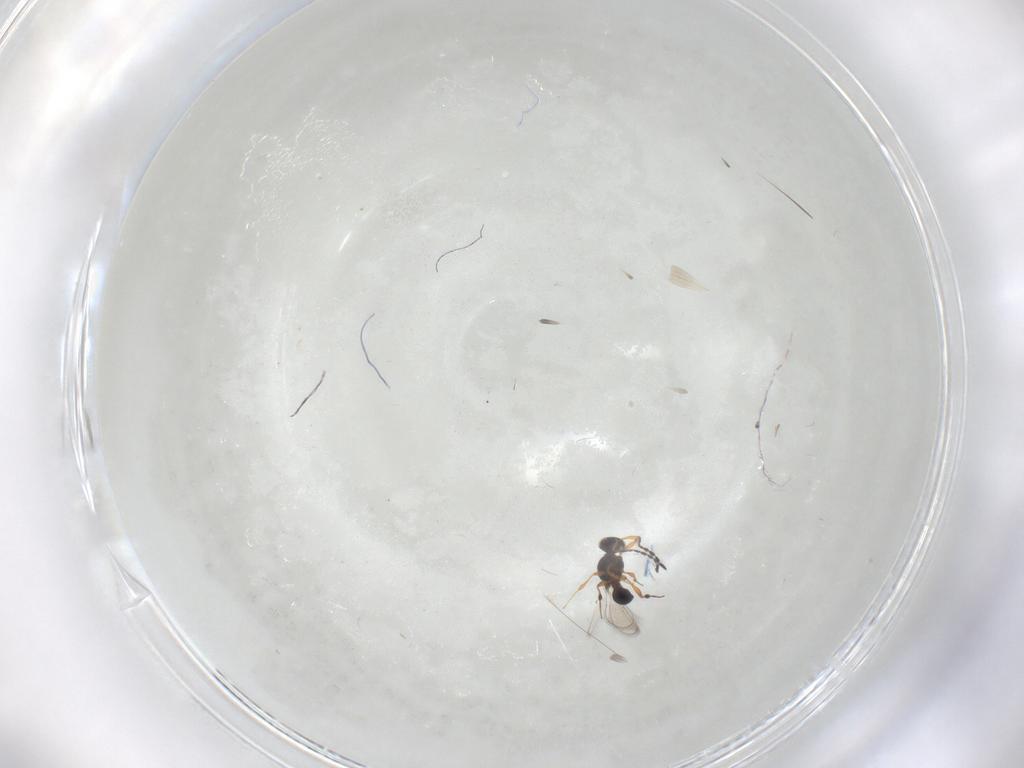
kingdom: Animalia
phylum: Arthropoda
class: Insecta
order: Hymenoptera
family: Platygastridae
